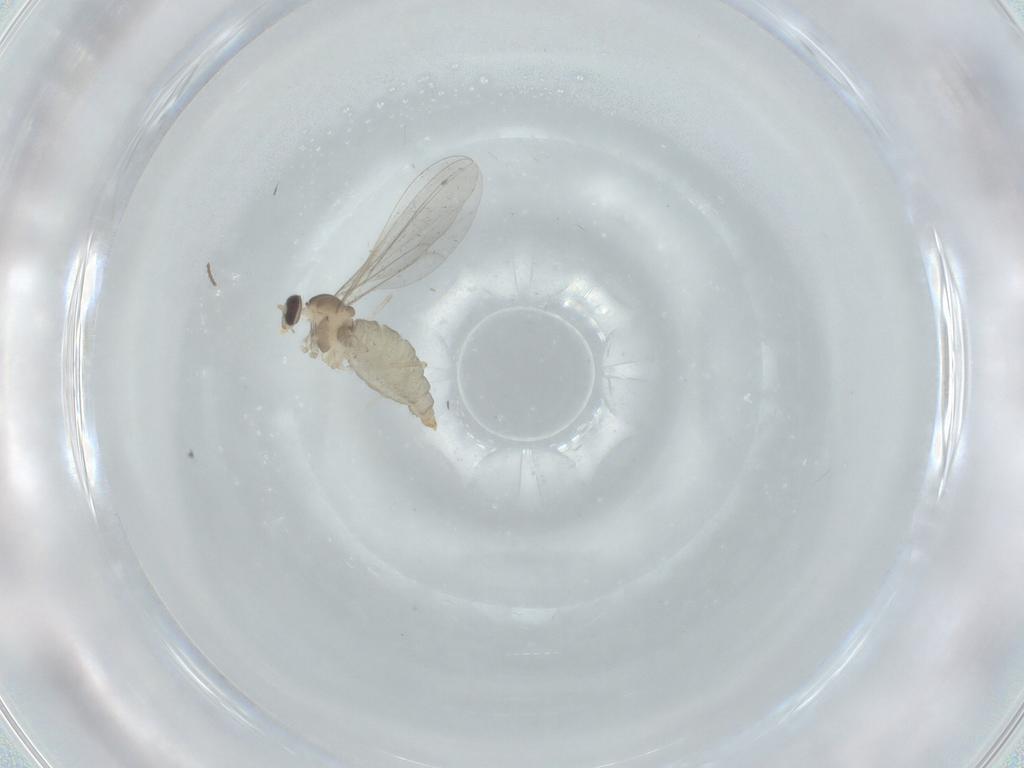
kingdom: Animalia
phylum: Arthropoda
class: Insecta
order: Diptera
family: Cecidomyiidae
